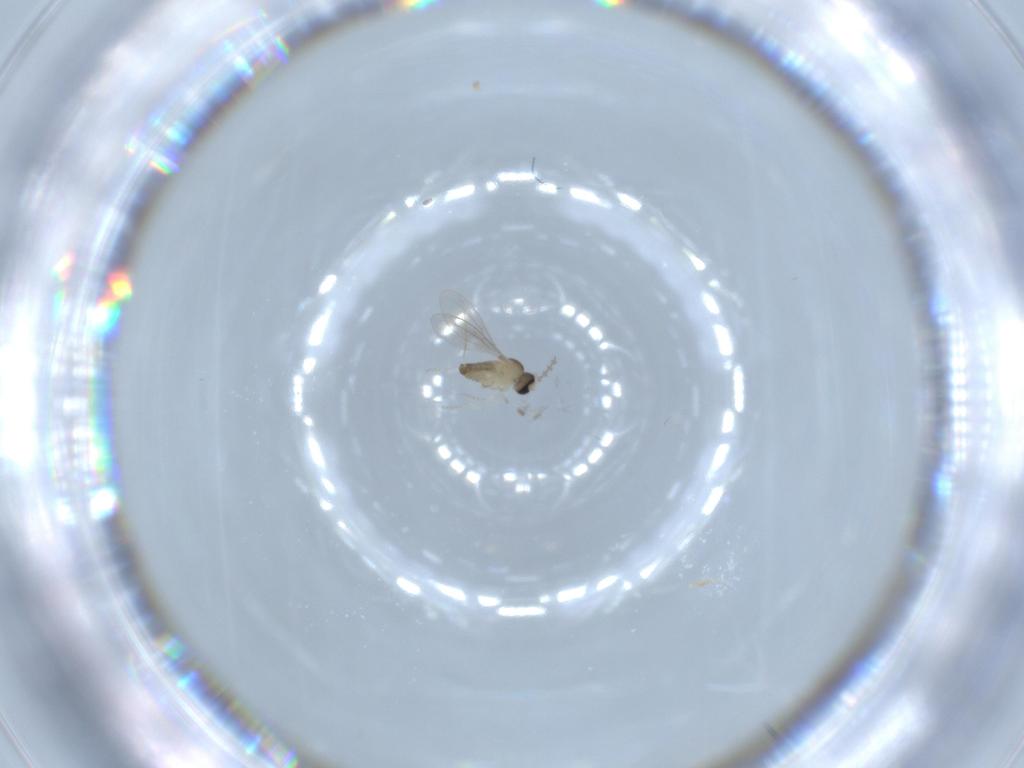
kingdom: Animalia
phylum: Arthropoda
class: Insecta
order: Diptera
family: Cecidomyiidae
